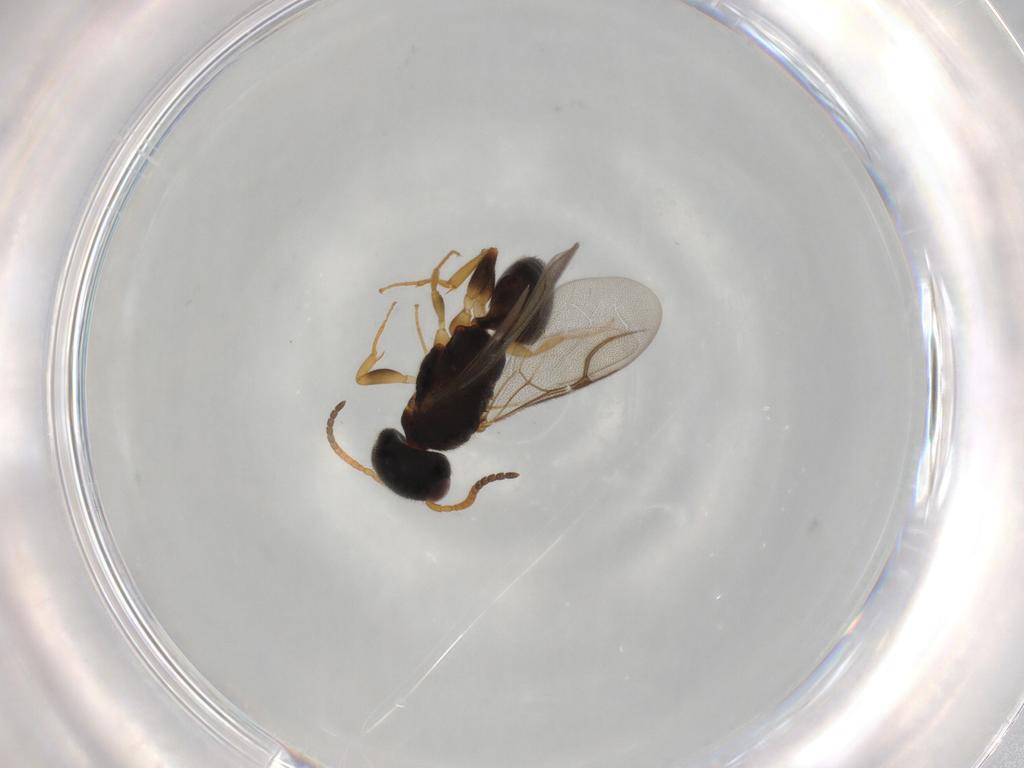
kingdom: Animalia
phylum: Arthropoda
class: Insecta
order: Hymenoptera
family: Bethylidae
